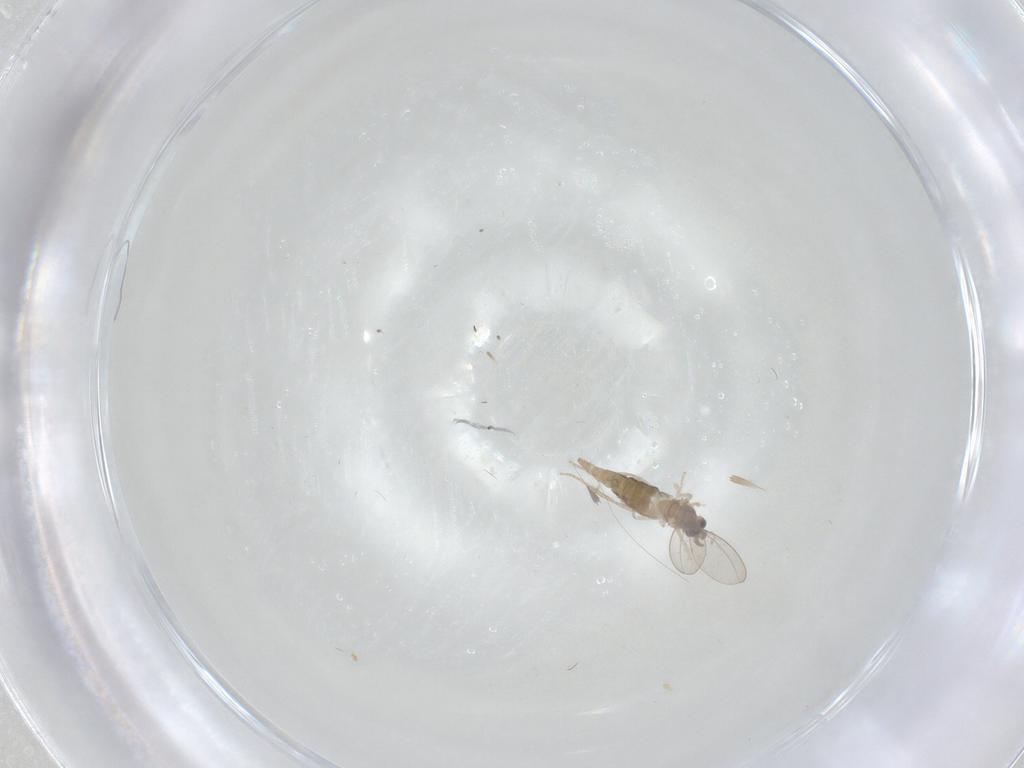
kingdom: Animalia
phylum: Arthropoda
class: Insecta
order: Diptera
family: Cecidomyiidae
